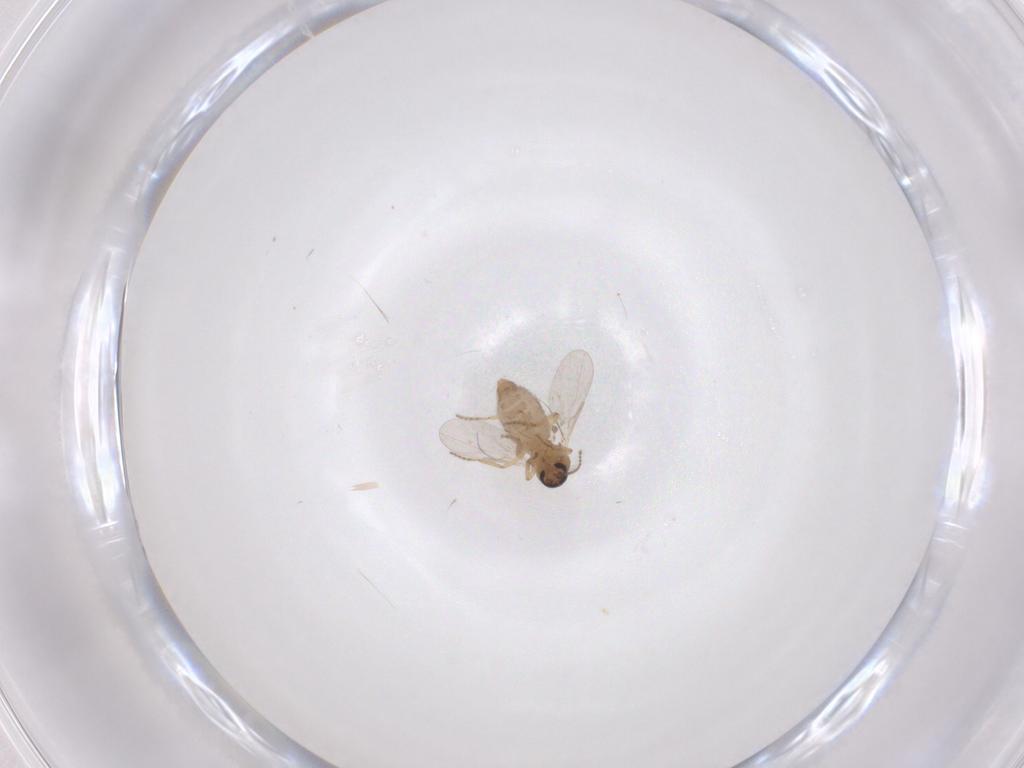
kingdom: Animalia
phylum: Arthropoda
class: Insecta
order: Diptera
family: Ceratopogonidae
